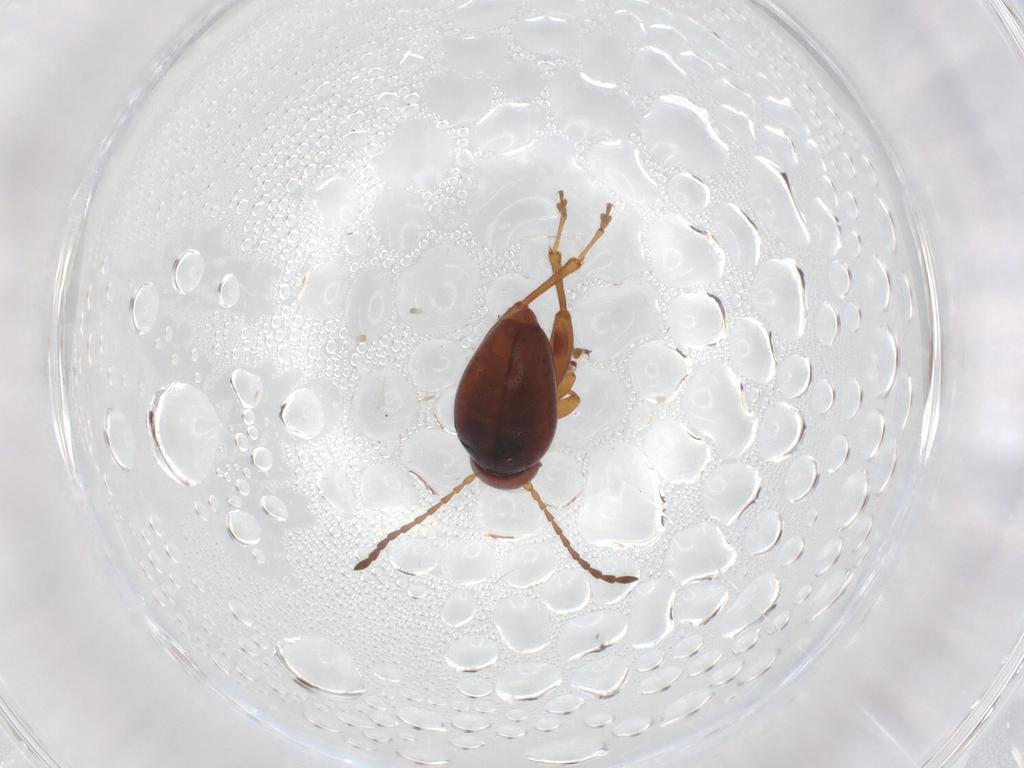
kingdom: Animalia
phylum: Arthropoda
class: Insecta
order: Coleoptera
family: Chrysomelidae
